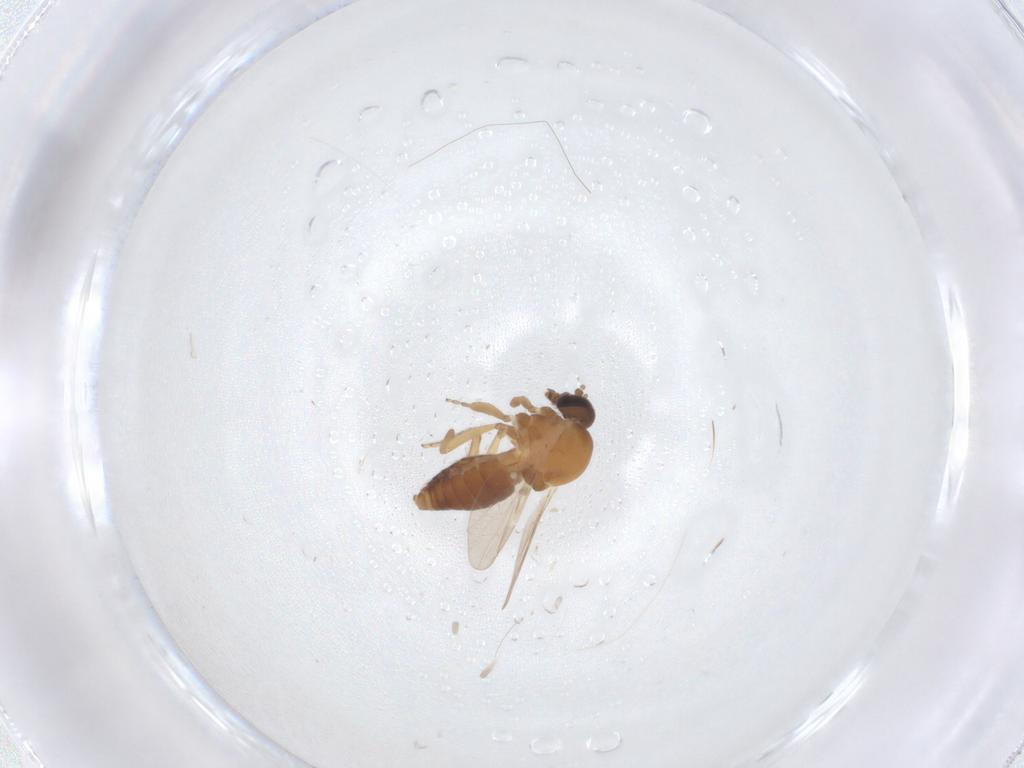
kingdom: Animalia
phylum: Arthropoda
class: Insecta
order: Diptera
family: Ceratopogonidae
